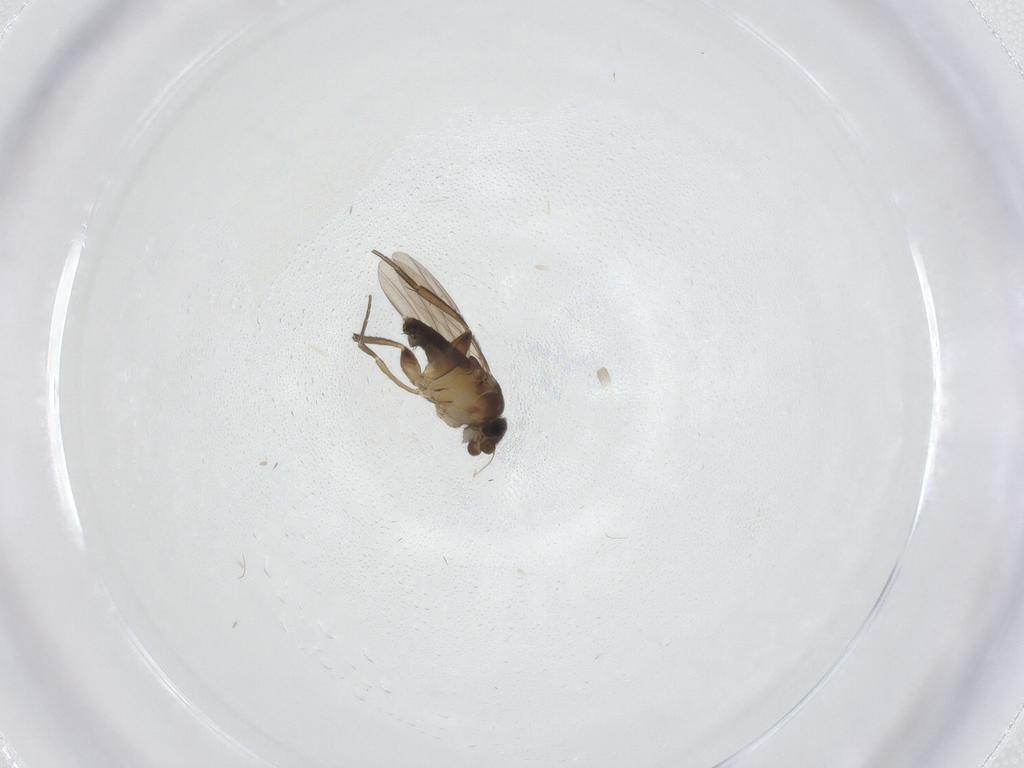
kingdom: Animalia
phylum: Arthropoda
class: Insecta
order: Diptera
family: Phoridae
